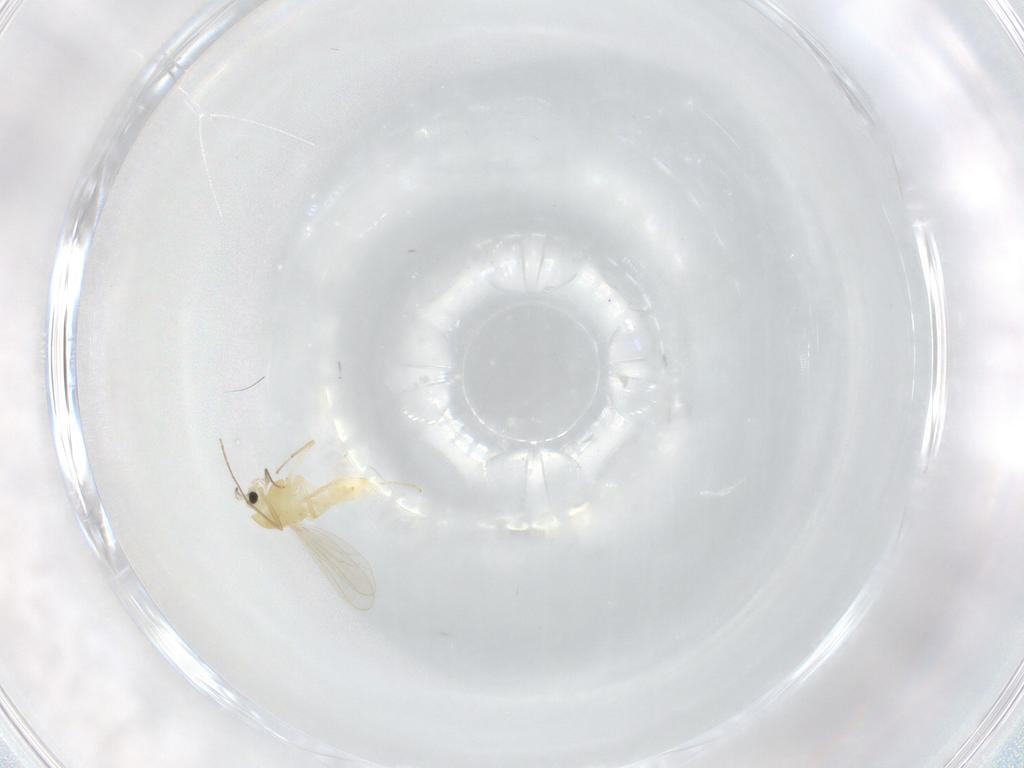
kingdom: Animalia
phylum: Arthropoda
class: Insecta
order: Diptera
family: Chironomidae
